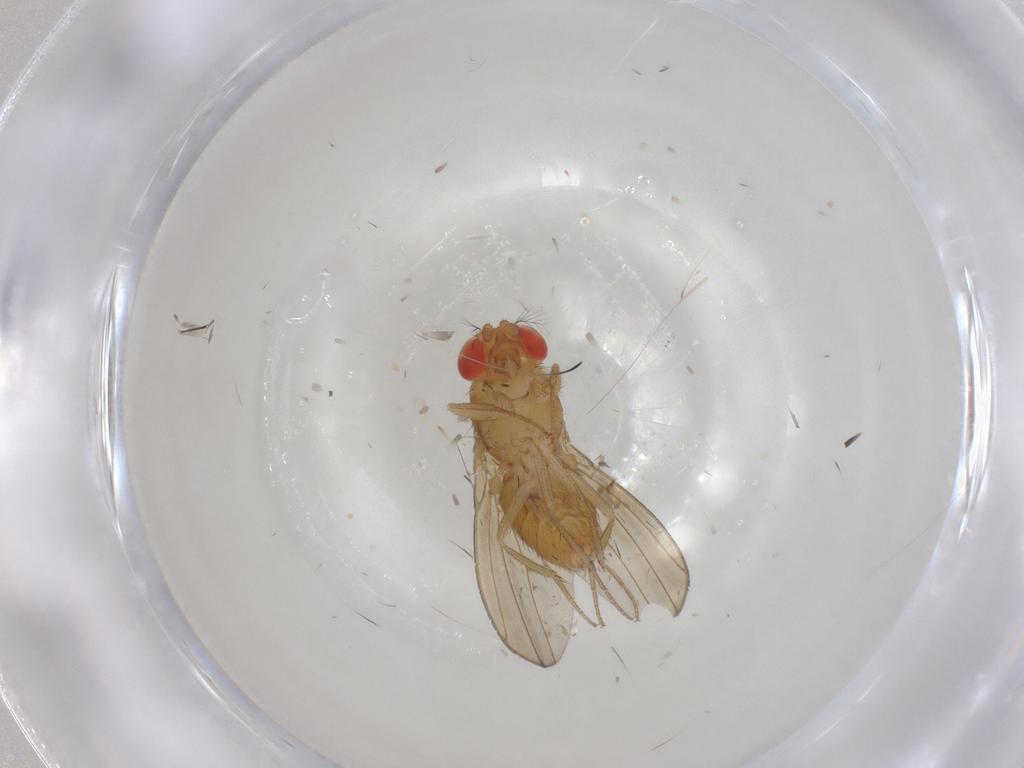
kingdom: Animalia
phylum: Arthropoda
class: Insecta
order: Diptera
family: Drosophilidae
